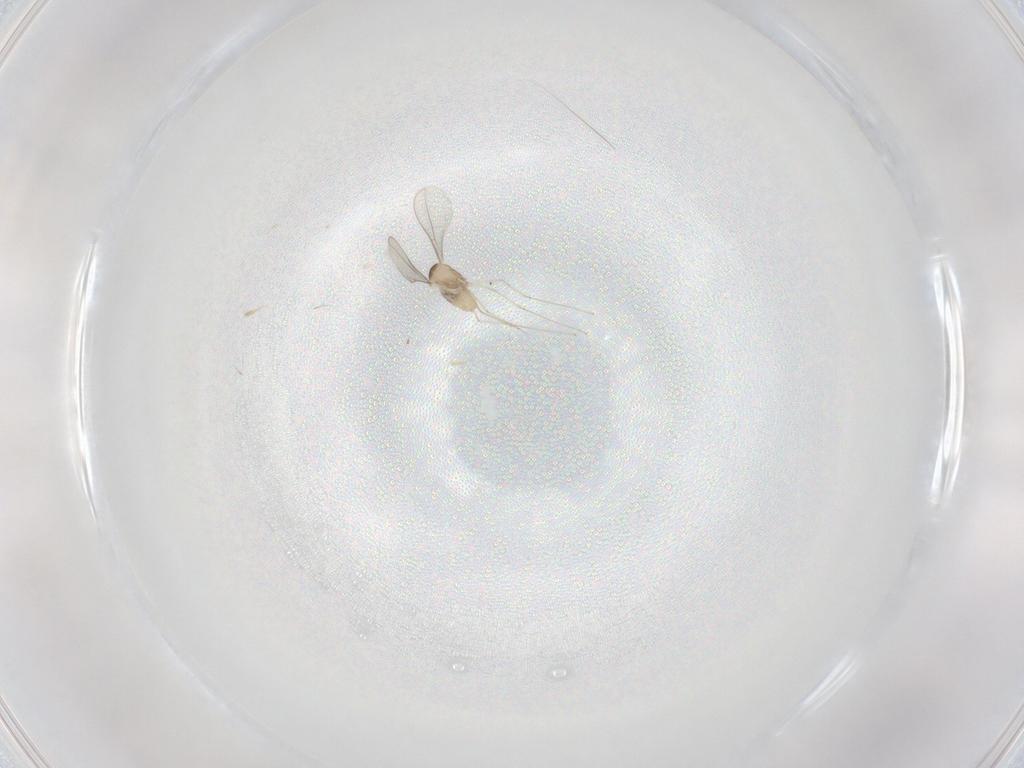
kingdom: Animalia
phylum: Arthropoda
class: Insecta
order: Diptera
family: Cecidomyiidae
